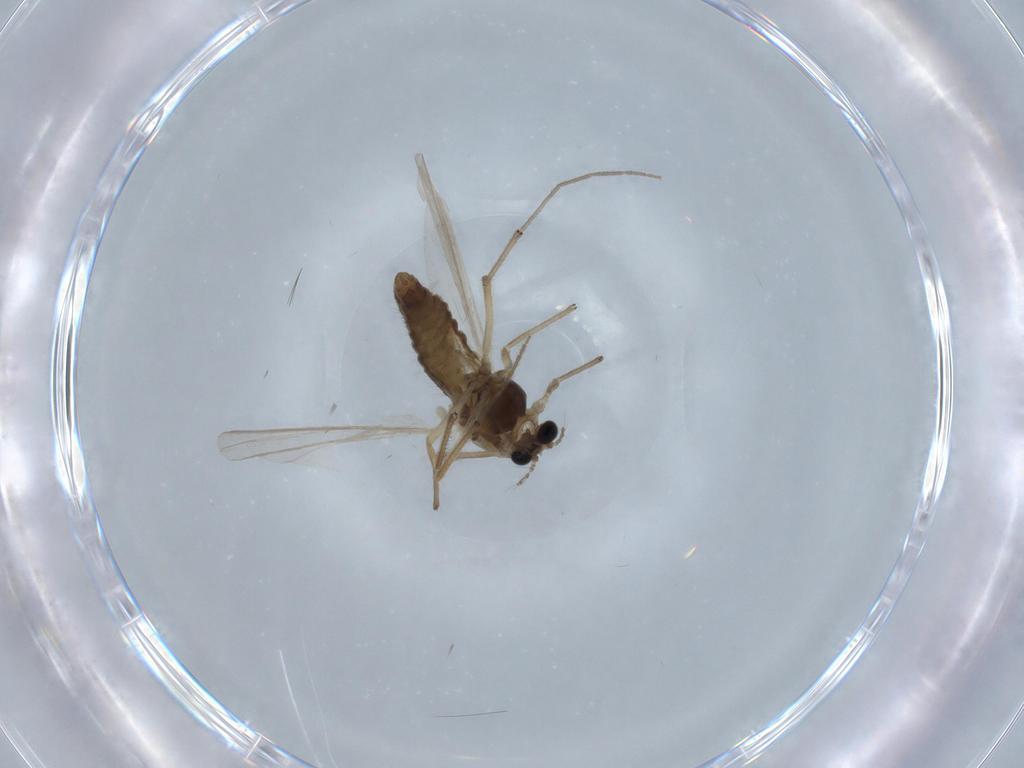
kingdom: Animalia
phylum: Arthropoda
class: Insecta
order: Diptera
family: Chironomidae
